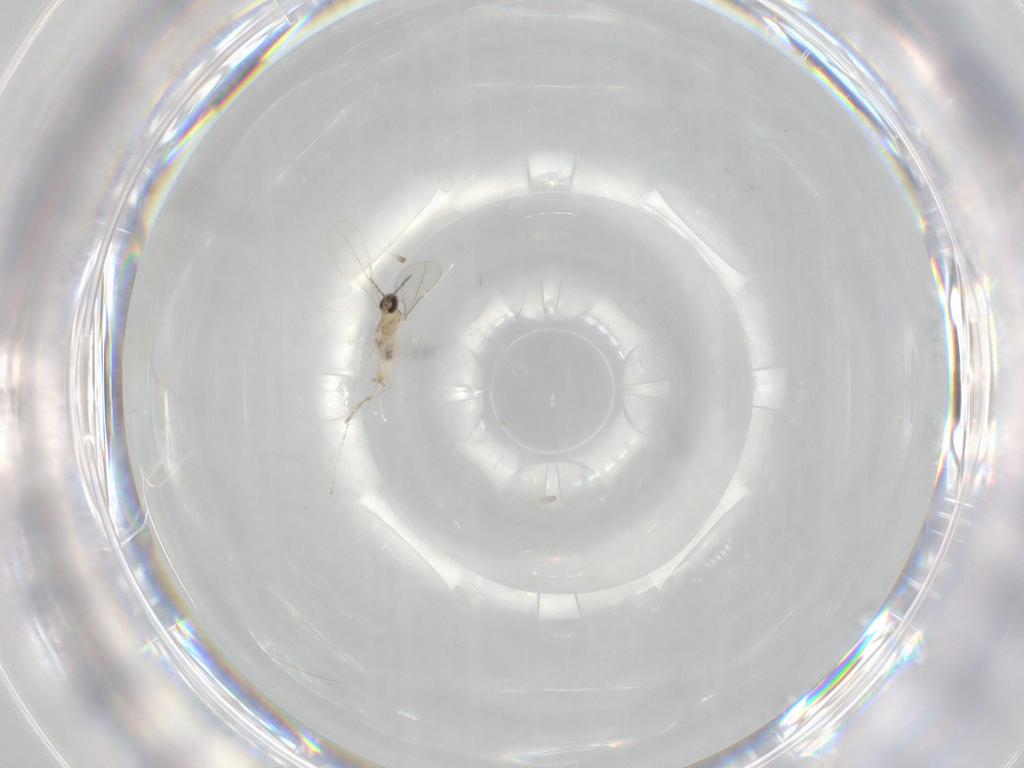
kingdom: Animalia
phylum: Arthropoda
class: Insecta
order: Diptera
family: Cecidomyiidae
